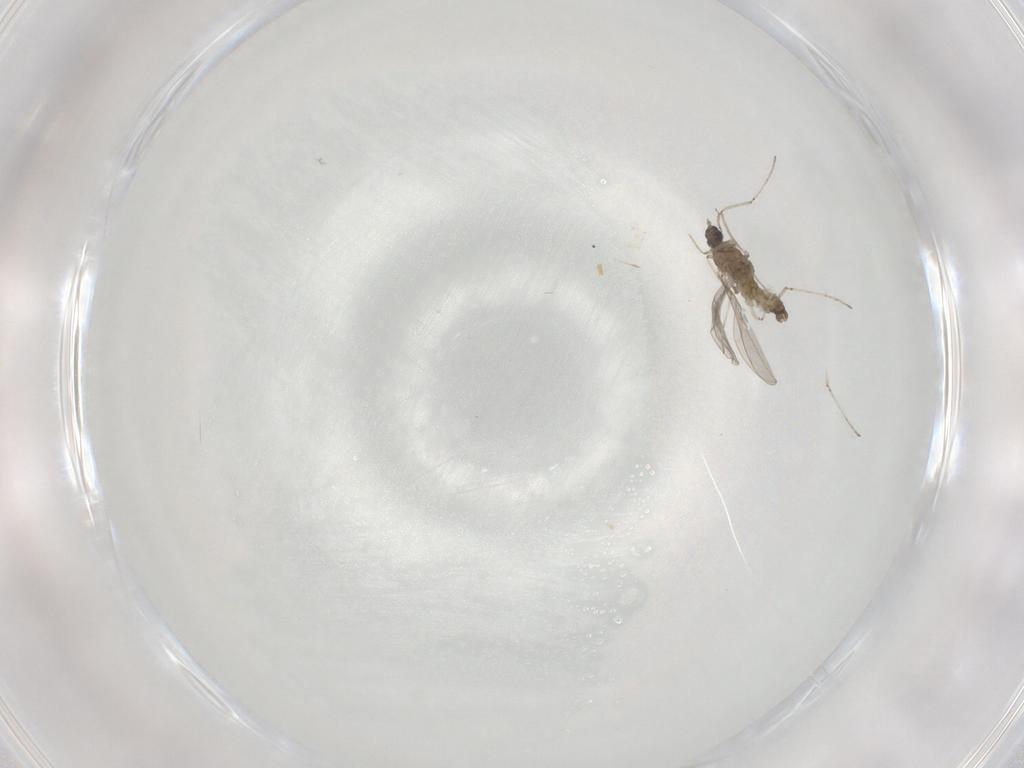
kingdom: Animalia
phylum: Arthropoda
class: Insecta
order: Diptera
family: Cecidomyiidae
